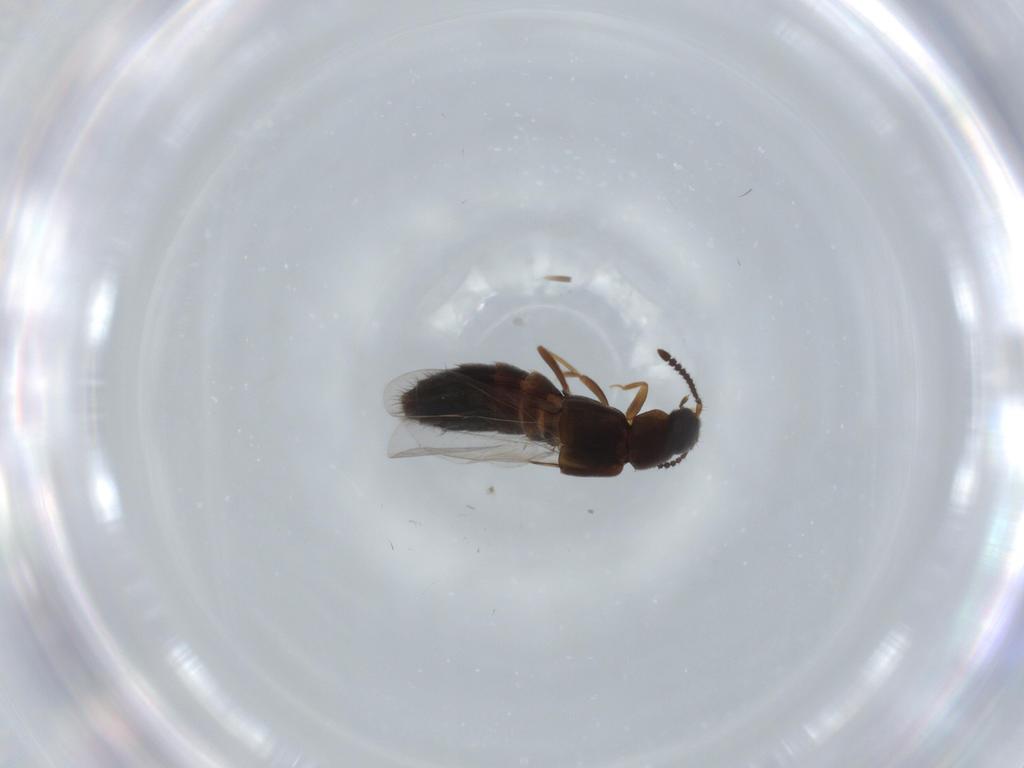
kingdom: Animalia
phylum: Arthropoda
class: Insecta
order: Coleoptera
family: Staphylinidae
